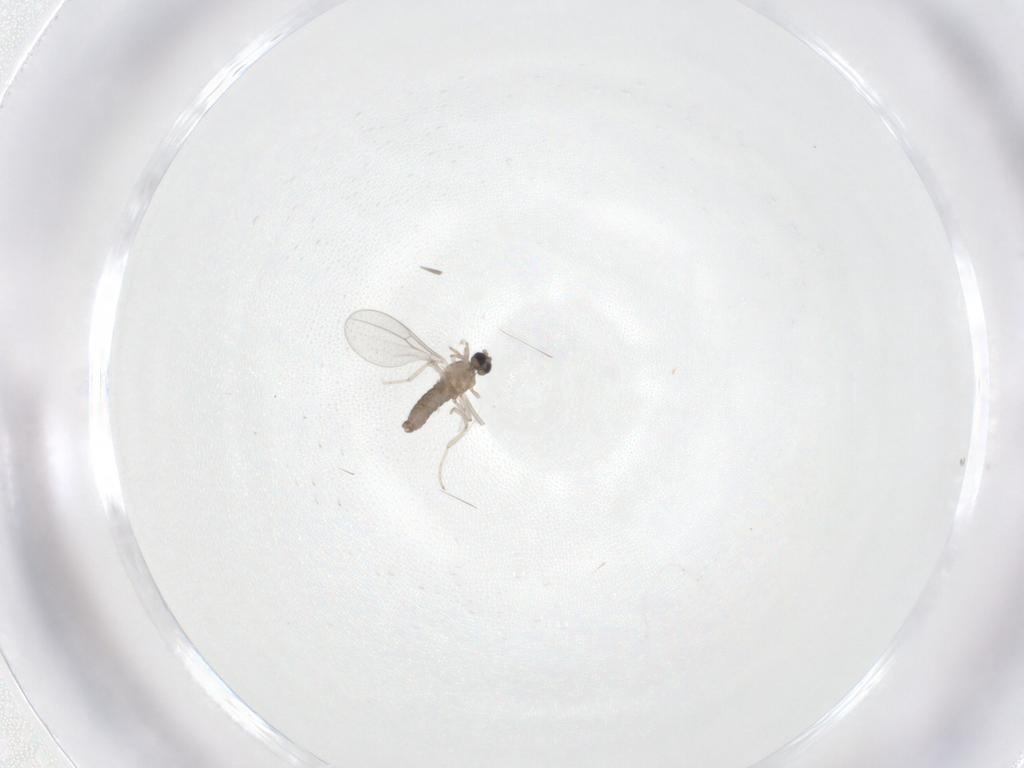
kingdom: Animalia
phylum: Arthropoda
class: Insecta
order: Diptera
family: Cecidomyiidae
